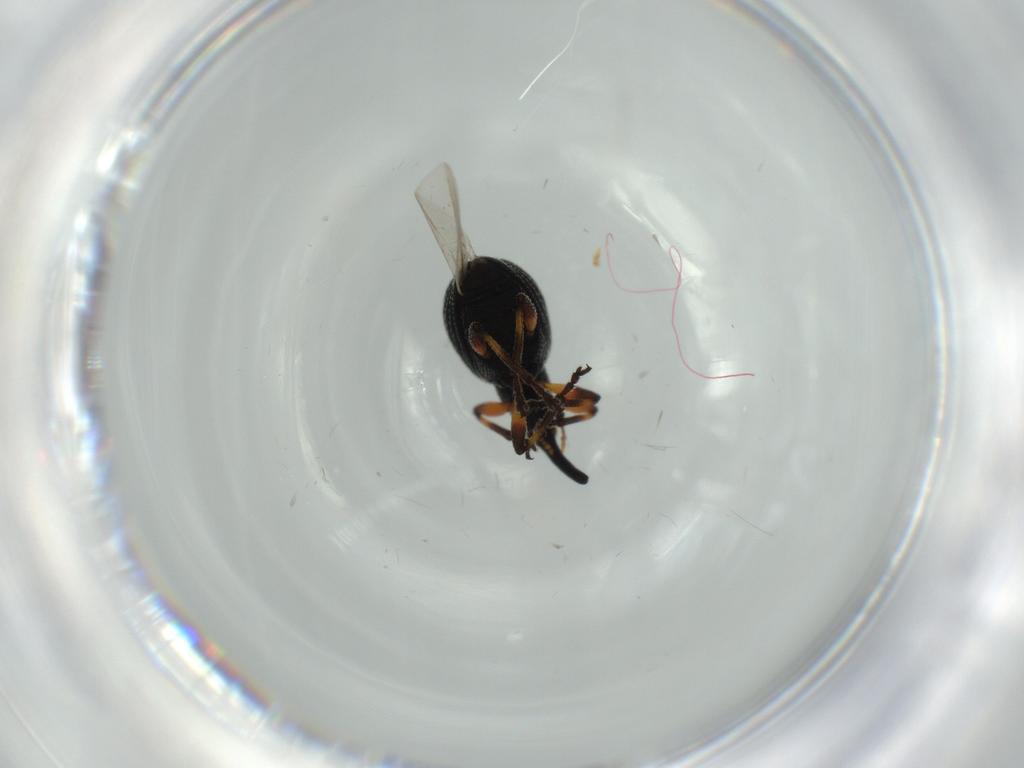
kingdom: Animalia
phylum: Arthropoda
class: Insecta
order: Coleoptera
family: Brentidae
